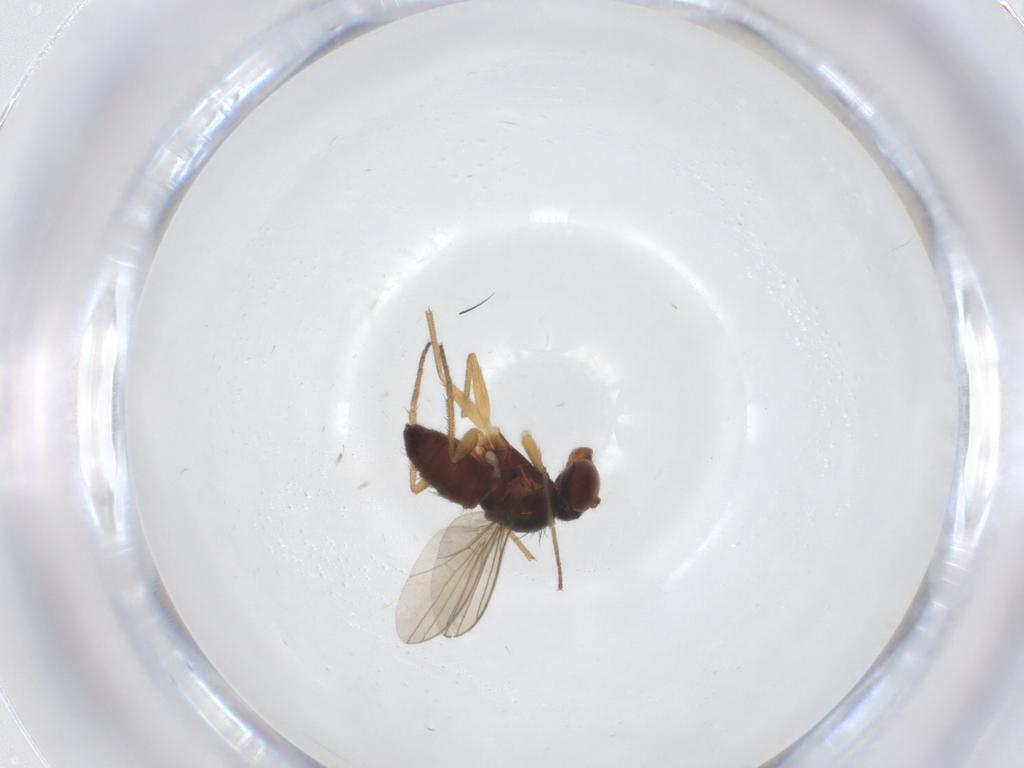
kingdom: Animalia
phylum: Arthropoda
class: Insecta
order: Diptera
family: Dolichopodidae
